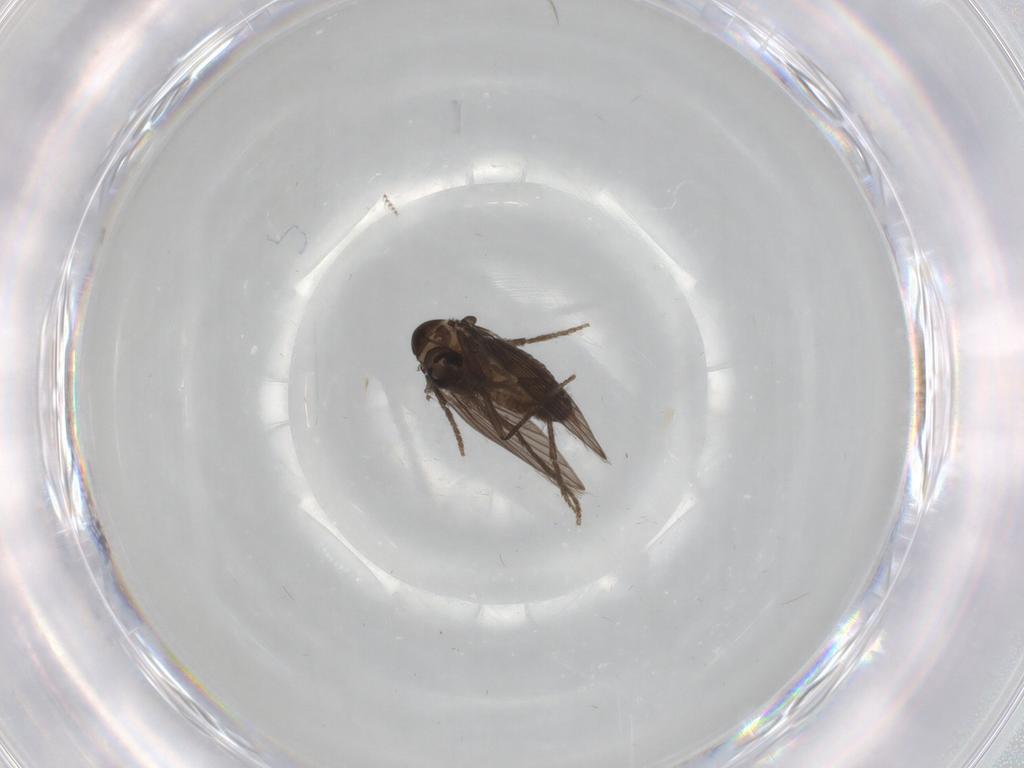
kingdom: Animalia
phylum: Arthropoda
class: Insecta
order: Diptera
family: Psychodidae
